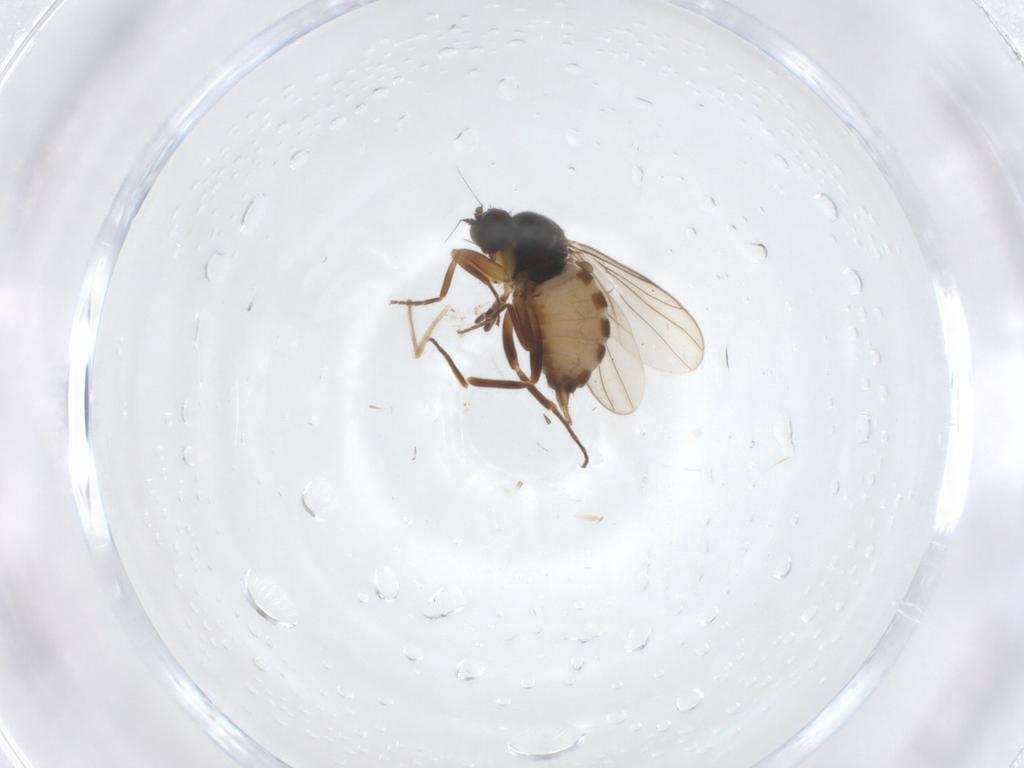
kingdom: Animalia
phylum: Arthropoda
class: Insecta
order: Diptera
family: Hybotidae
